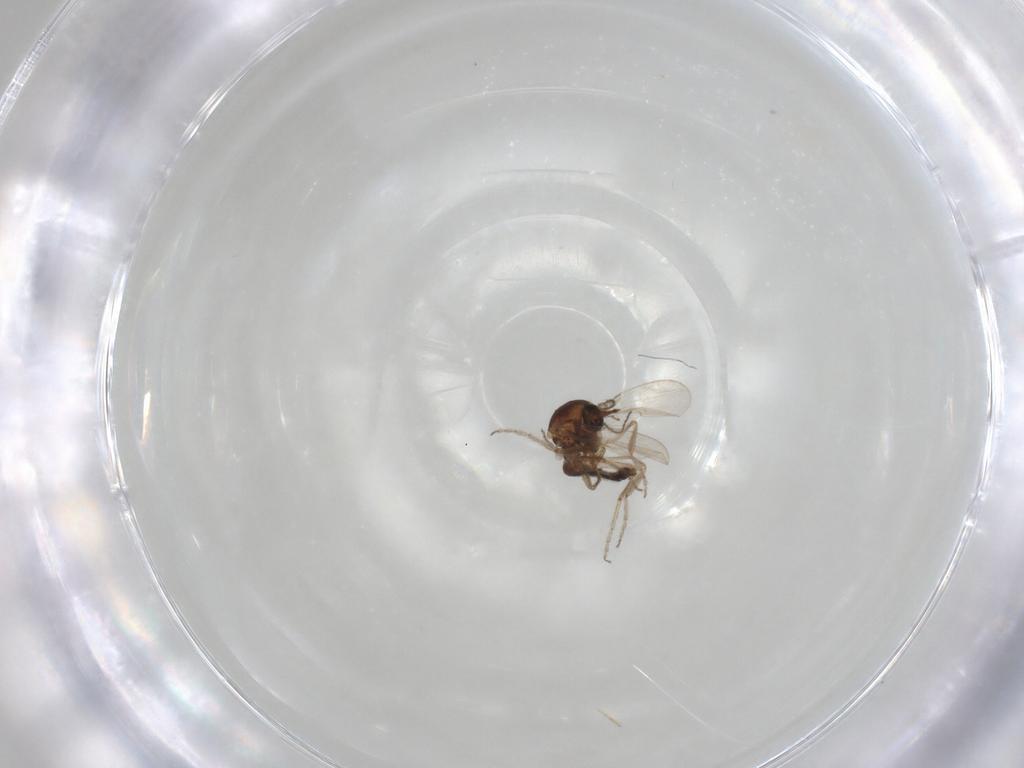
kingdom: Animalia
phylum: Arthropoda
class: Insecta
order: Diptera
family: Ceratopogonidae
